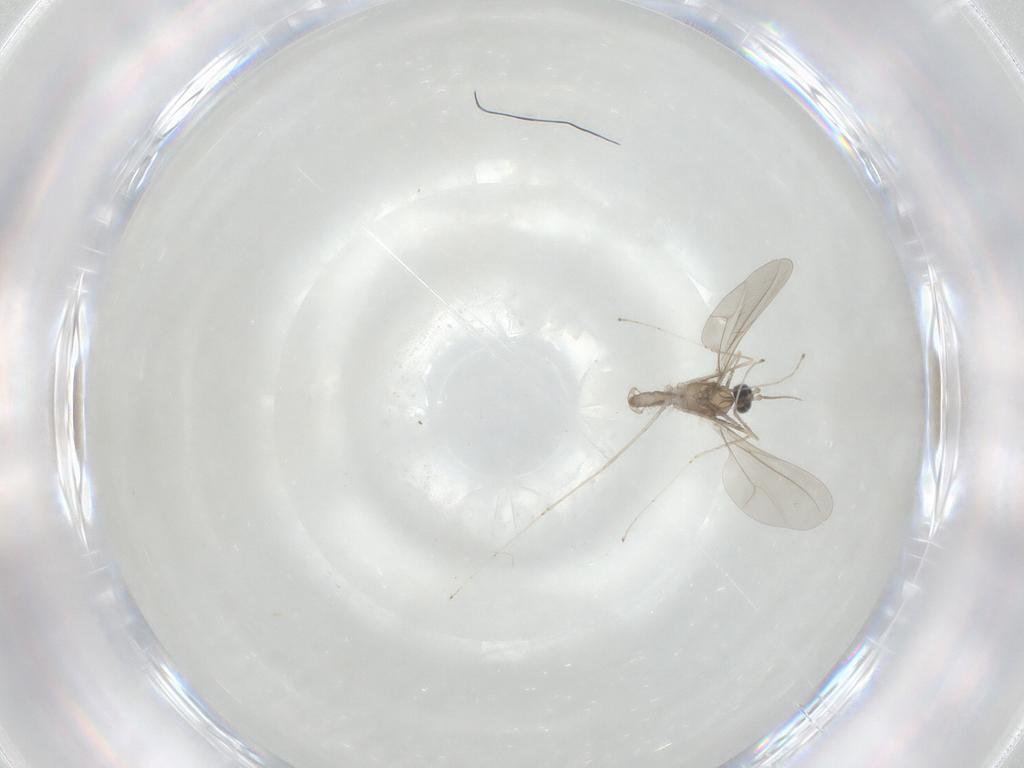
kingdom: Animalia
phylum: Arthropoda
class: Insecta
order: Diptera
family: Cecidomyiidae
